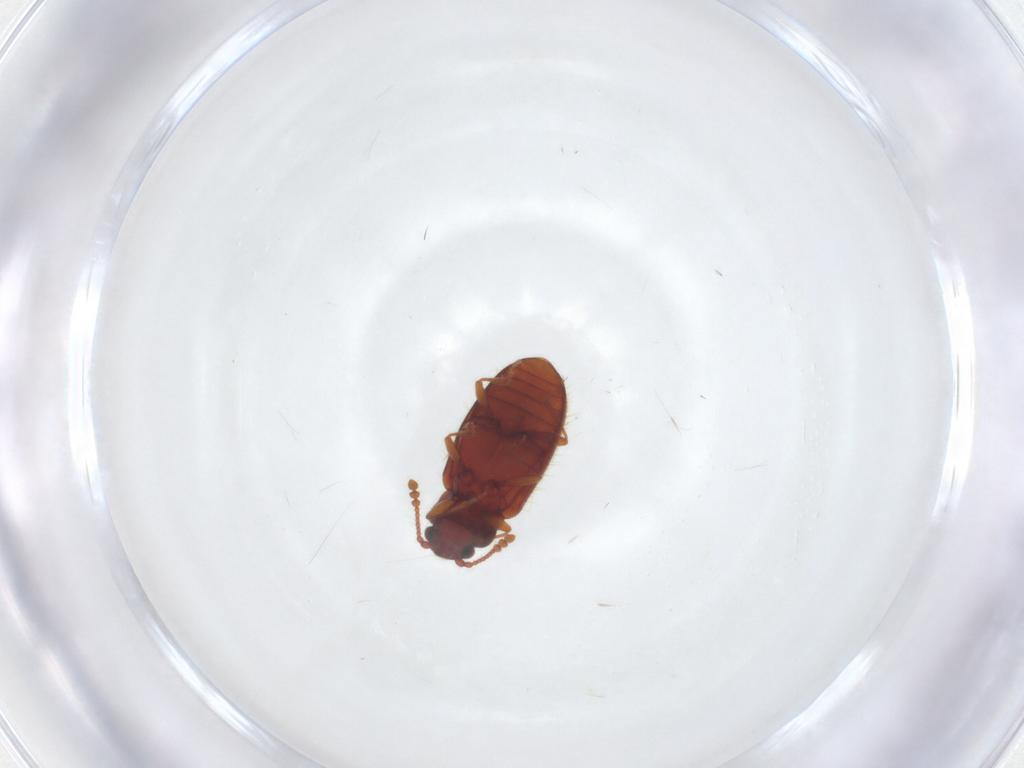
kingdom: Animalia
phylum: Arthropoda
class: Insecta
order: Coleoptera
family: Cryptophagidae
